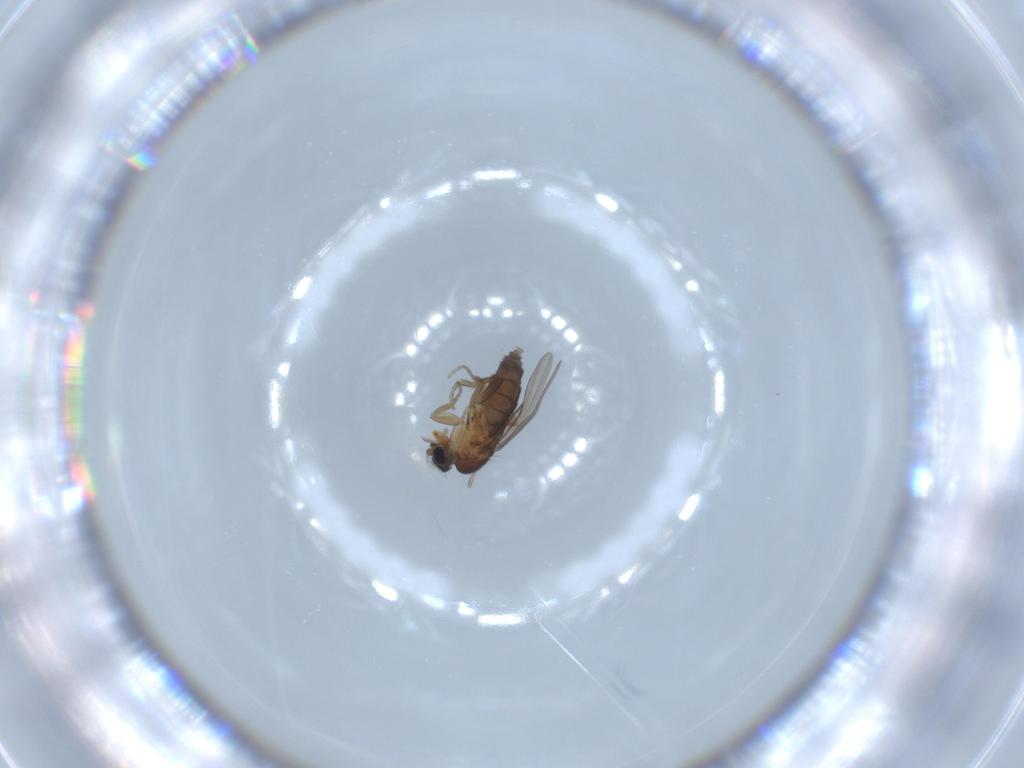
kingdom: Animalia
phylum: Arthropoda
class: Insecta
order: Diptera
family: Phoridae
